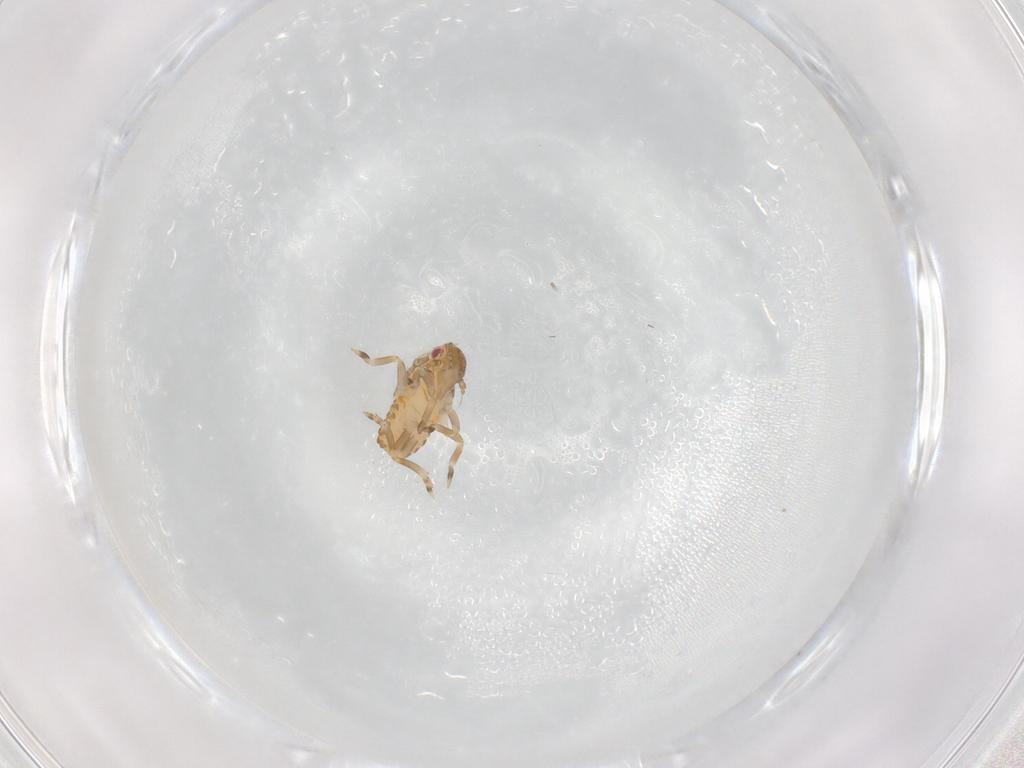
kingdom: Animalia
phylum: Arthropoda
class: Insecta
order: Hemiptera
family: Flatidae
